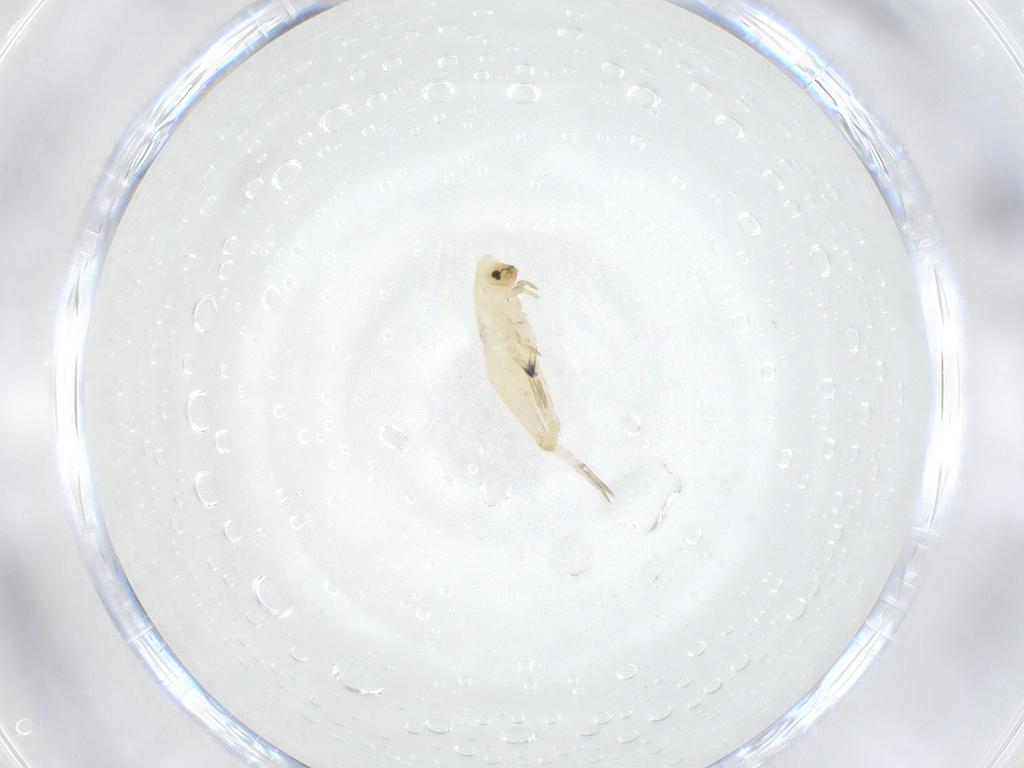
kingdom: Animalia
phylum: Arthropoda
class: Collembola
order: Entomobryomorpha
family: Entomobryidae
